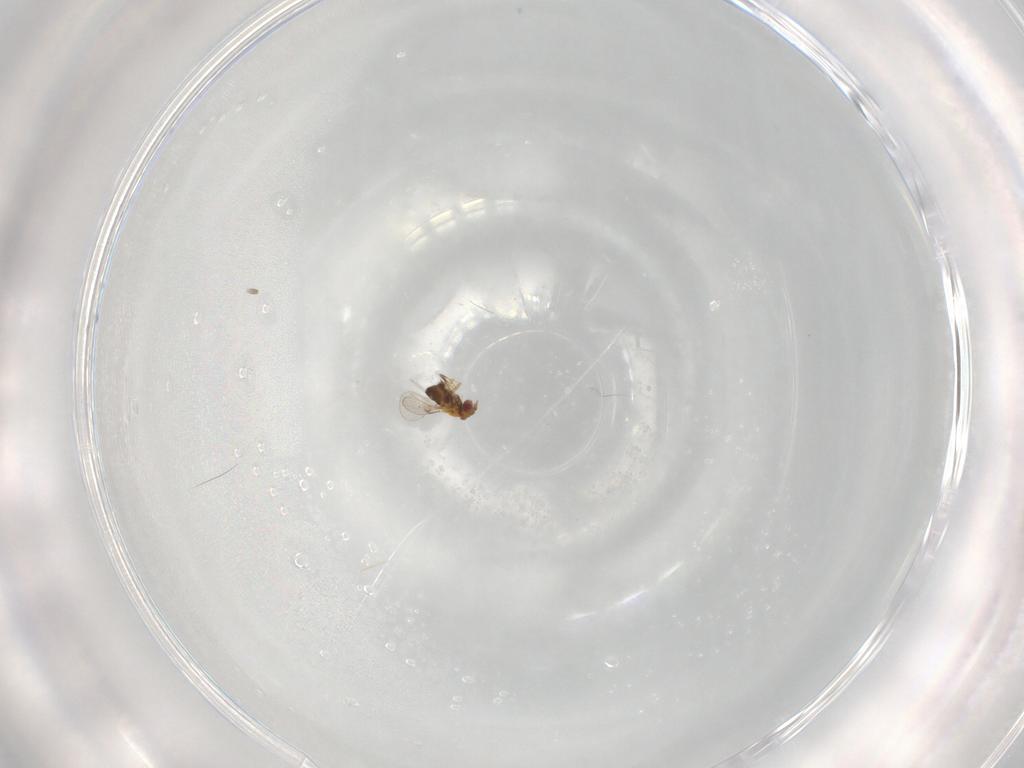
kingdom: Animalia
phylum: Arthropoda
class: Insecta
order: Hymenoptera
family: Trichogrammatidae
